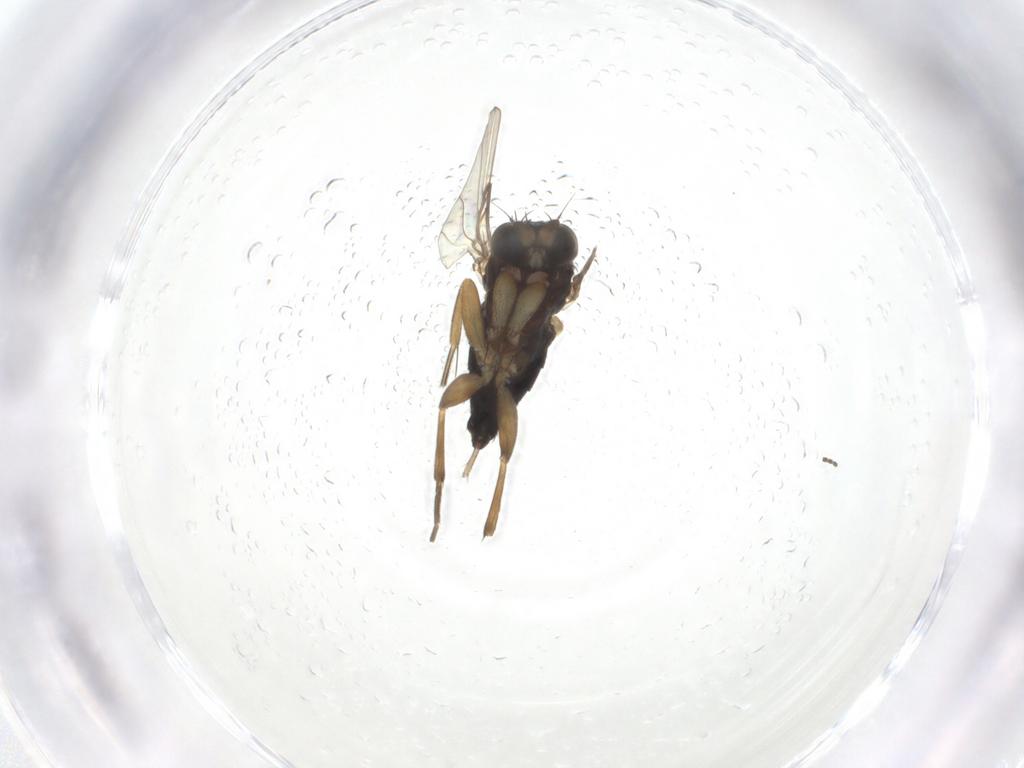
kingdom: Animalia
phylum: Arthropoda
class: Insecta
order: Diptera
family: Phoridae
